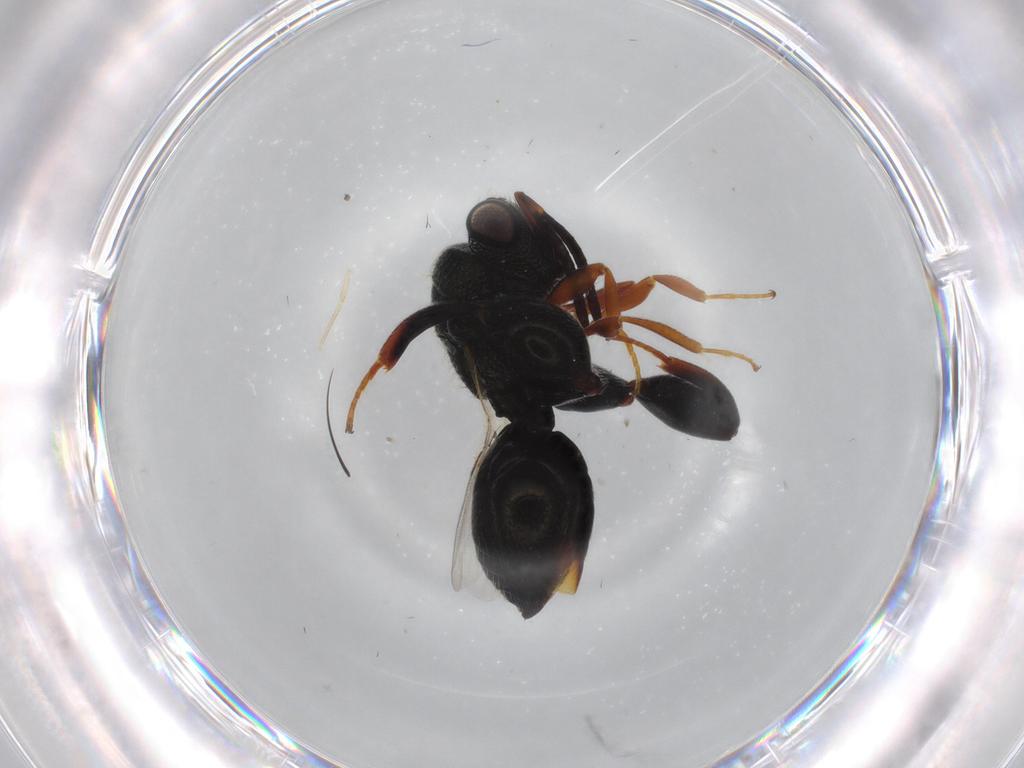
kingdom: Animalia
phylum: Arthropoda
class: Insecta
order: Hymenoptera
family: Chalcididae
